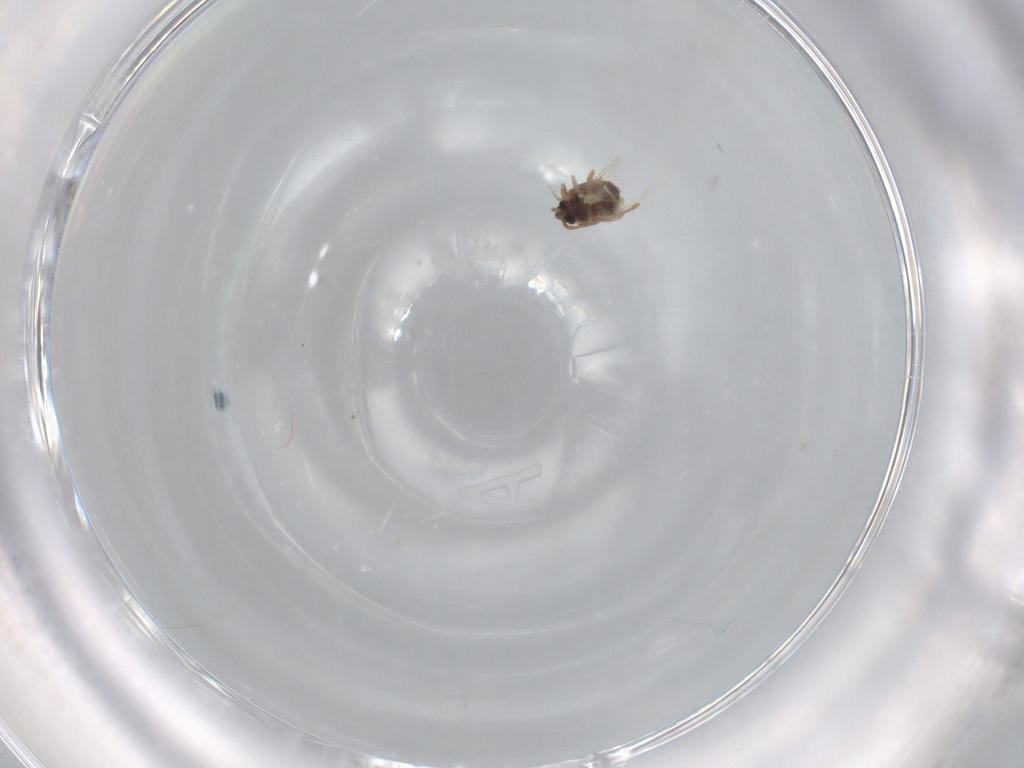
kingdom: Animalia
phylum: Arthropoda
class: Insecta
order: Diptera
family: Ceratopogonidae
